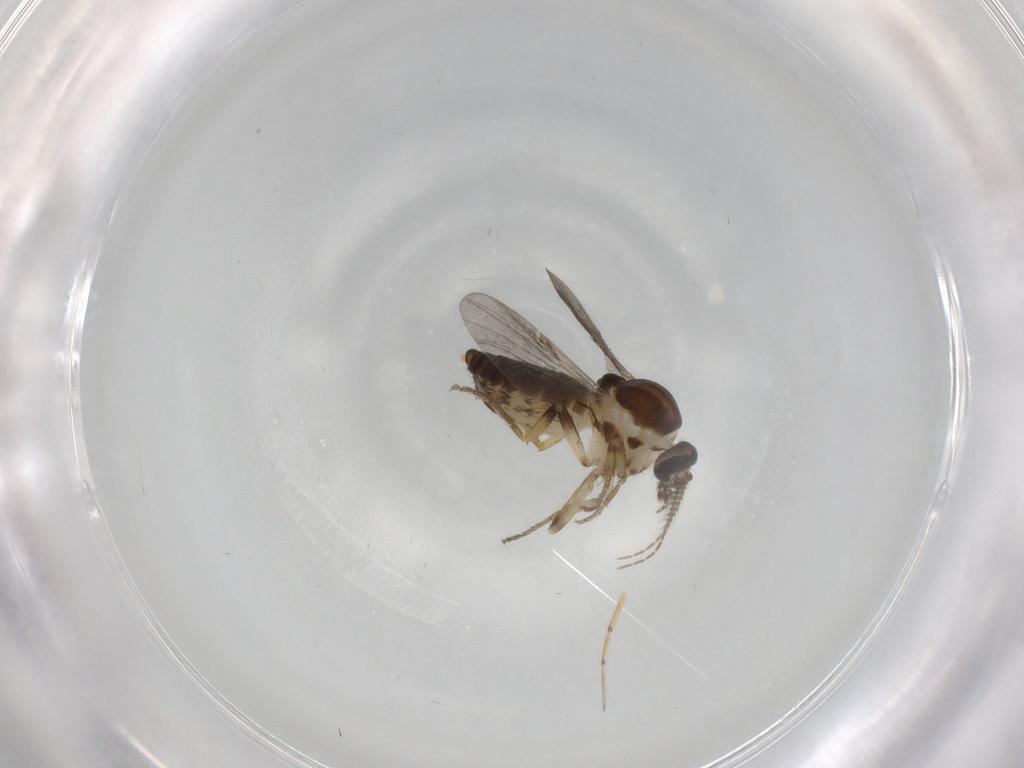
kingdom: Animalia
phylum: Arthropoda
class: Insecta
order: Diptera
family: Ceratopogonidae
